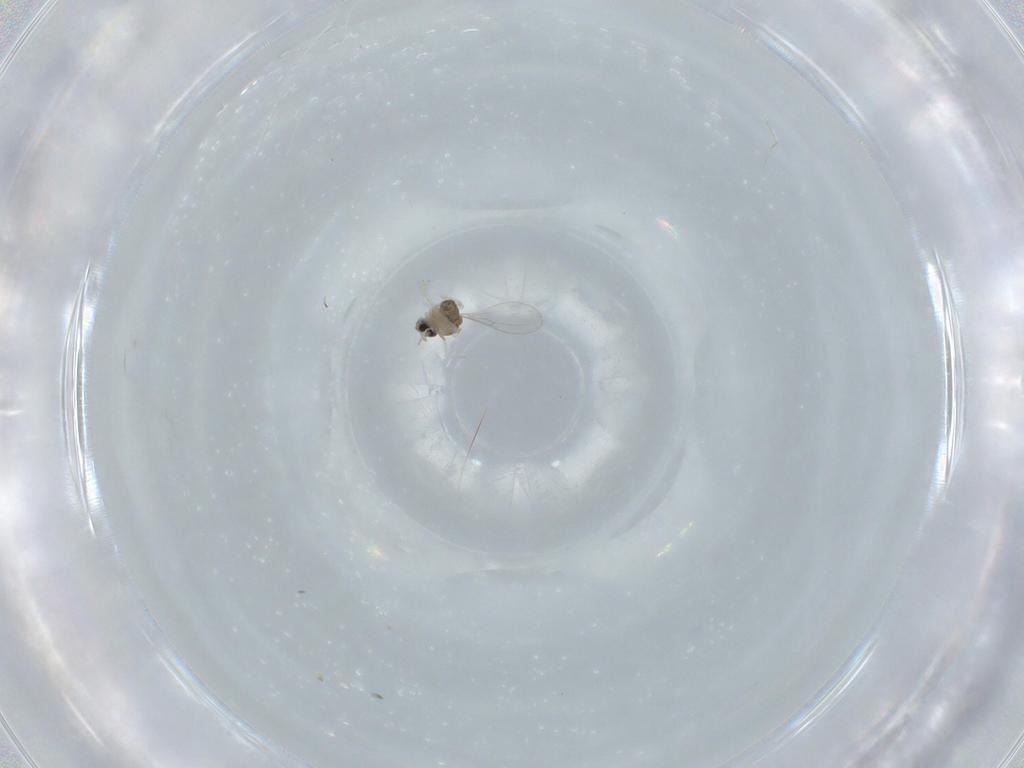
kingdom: Animalia
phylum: Arthropoda
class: Insecta
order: Diptera
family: Cecidomyiidae
